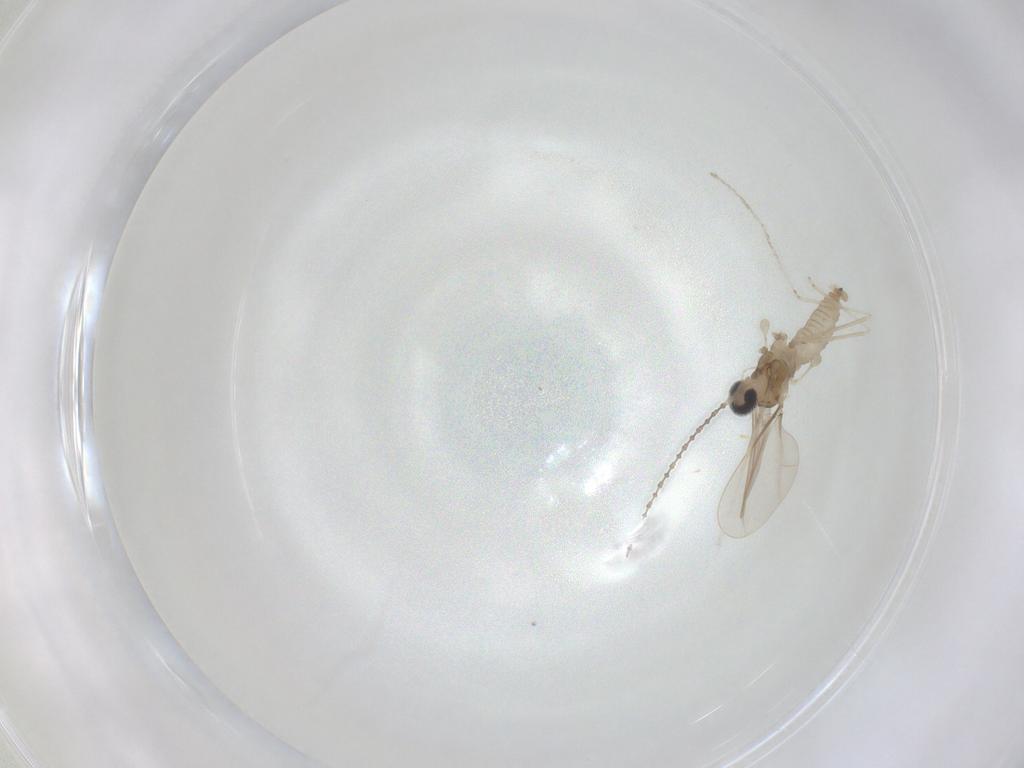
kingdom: Animalia
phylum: Arthropoda
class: Insecta
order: Diptera
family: Cecidomyiidae
